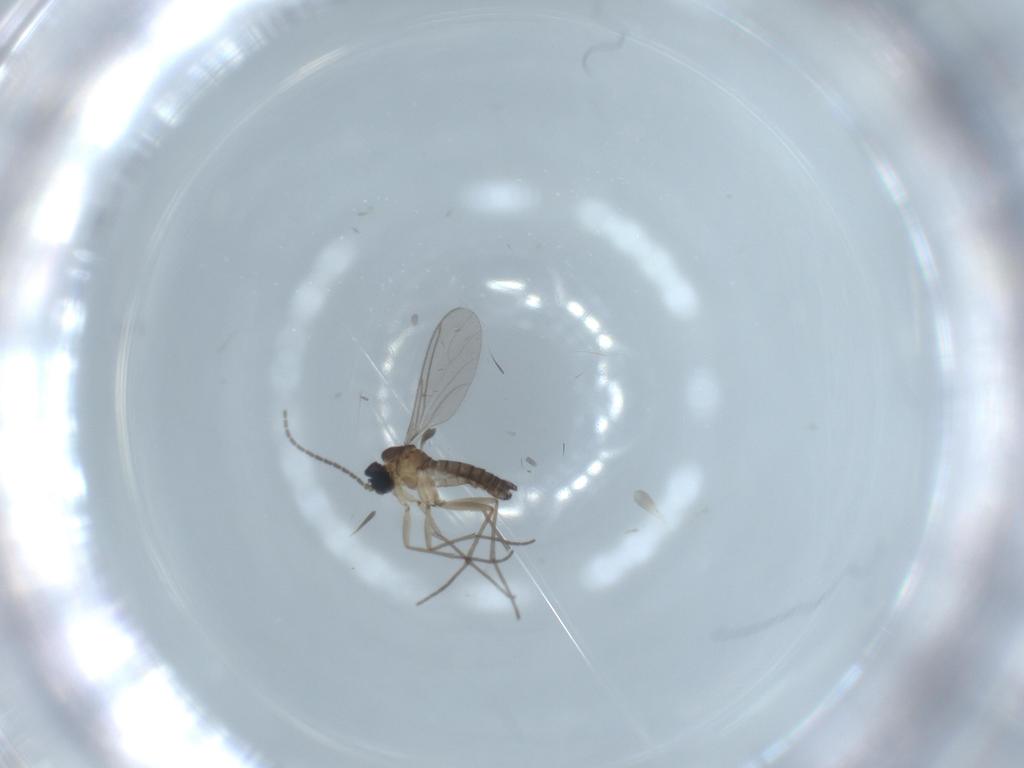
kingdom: Animalia
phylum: Arthropoda
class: Insecta
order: Diptera
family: Sciaridae
